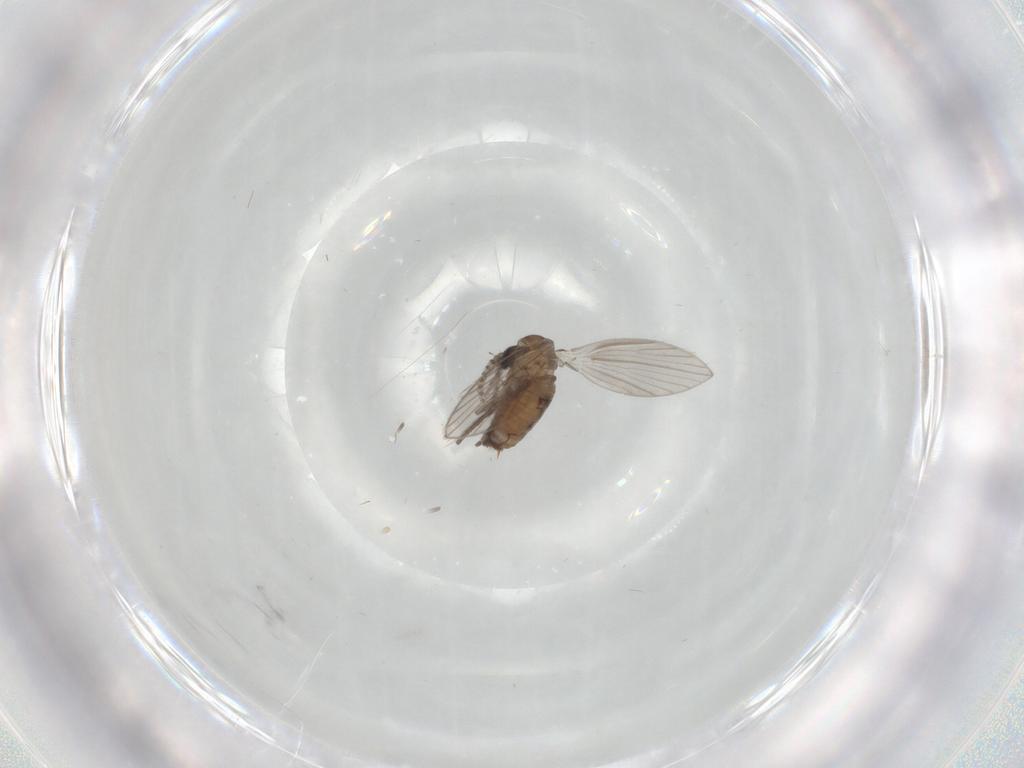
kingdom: Animalia
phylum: Arthropoda
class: Insecta
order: Diptera
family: Psychodidae
